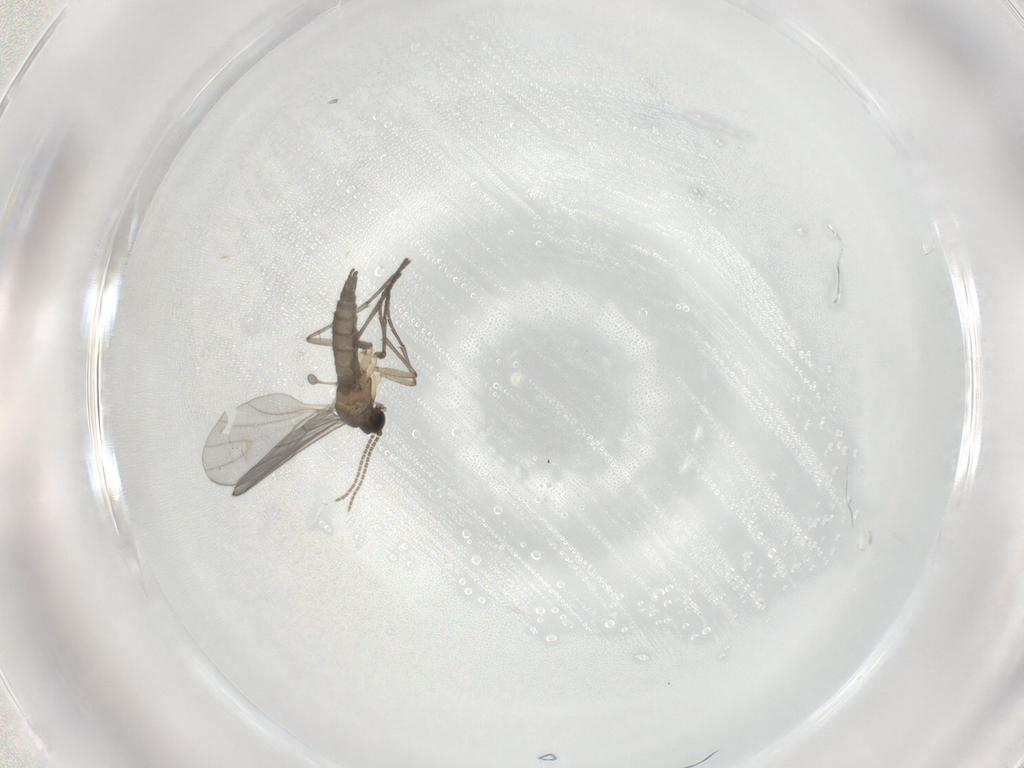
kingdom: Animalia
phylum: Arthropoda
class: Insecta
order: Diptera
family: Sciaridae
